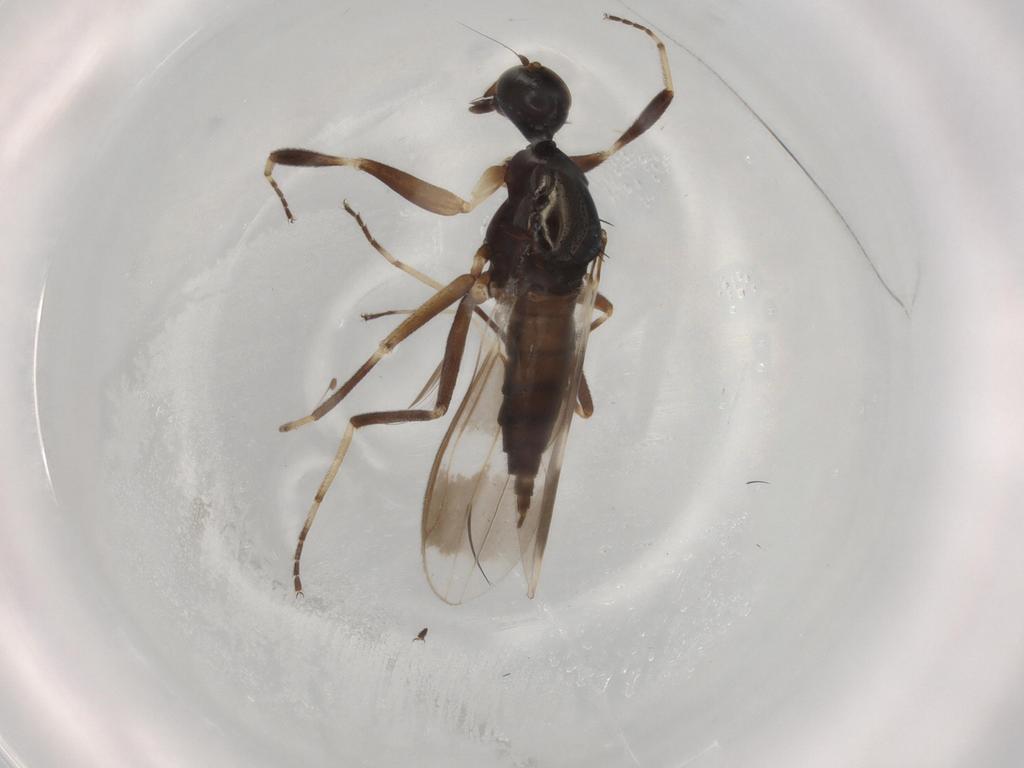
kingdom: Animalia
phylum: Arthropoda
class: Insecta
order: Diptera
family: Hybotidae
